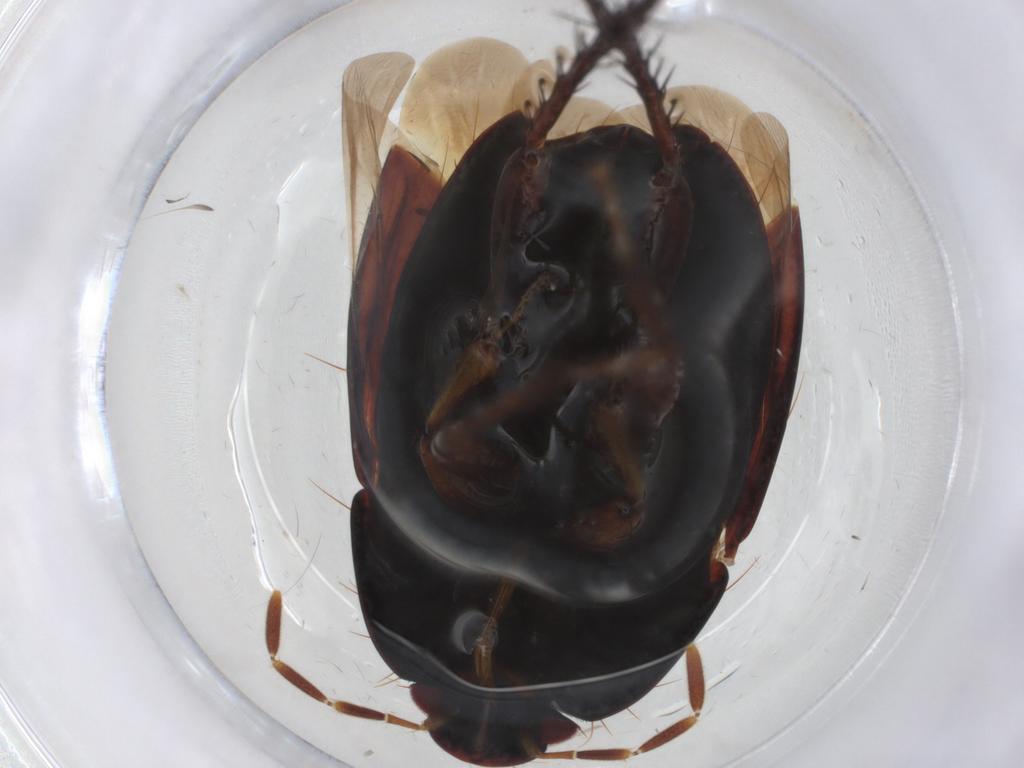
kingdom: Animalia
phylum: Arthropoda
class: Insecta
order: Hemiptera
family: Cydnidae
